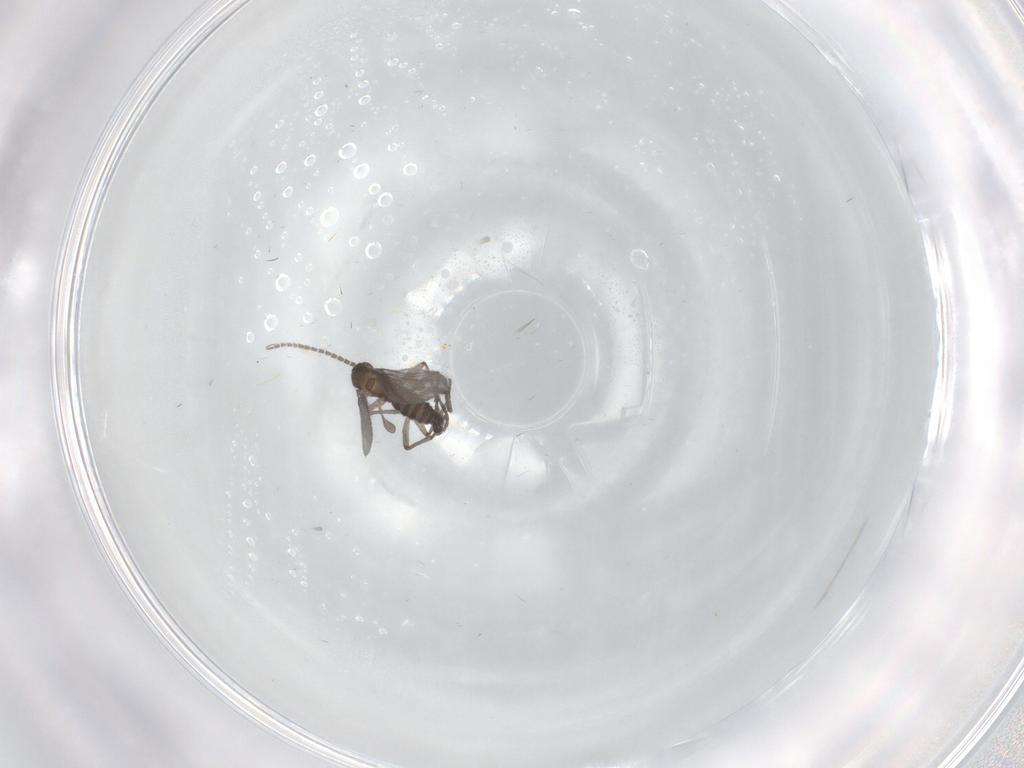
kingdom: Animalia
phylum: Arthropoda
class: Insecta
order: Diptera
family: Sciaridae
